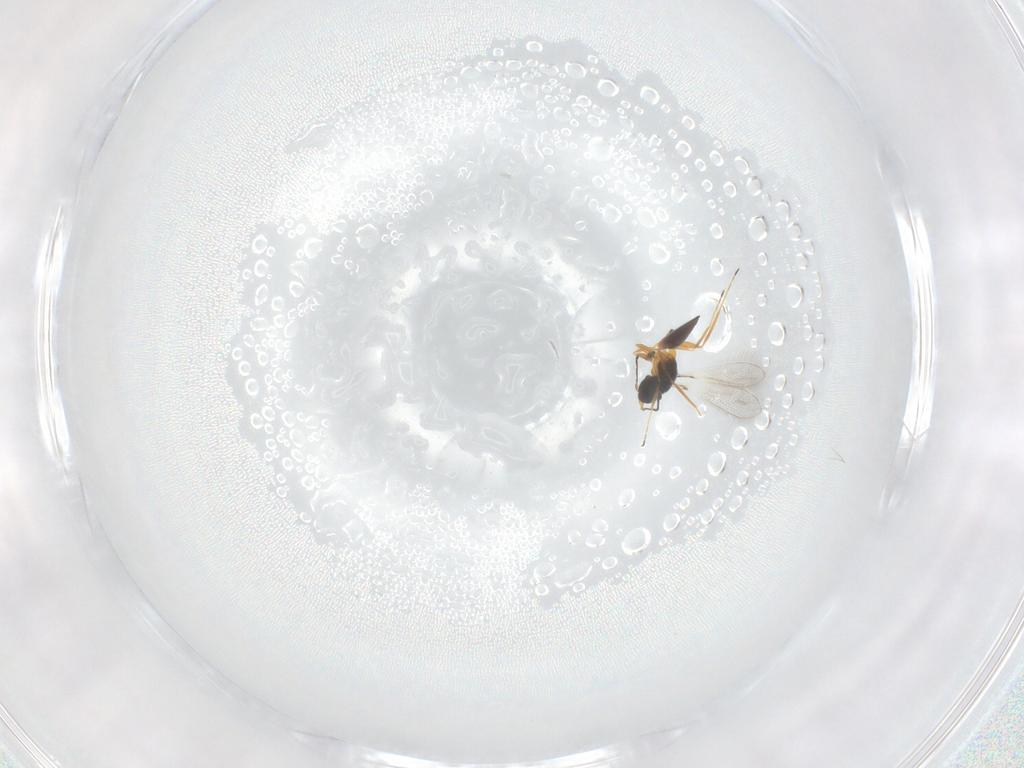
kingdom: Animalia
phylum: Arthropoda
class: Insecta
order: Hymenoptera
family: Mymaridae
